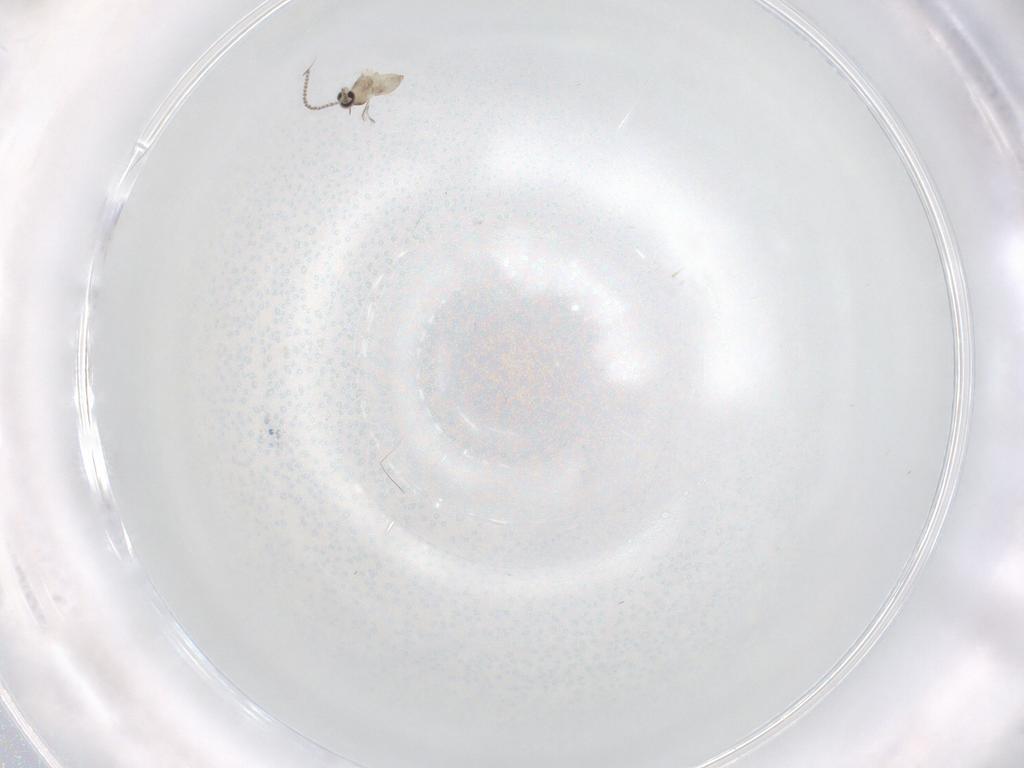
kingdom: Animalia
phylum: Arthropoda
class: Insecta
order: Diptera
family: Cecidomyiidae
